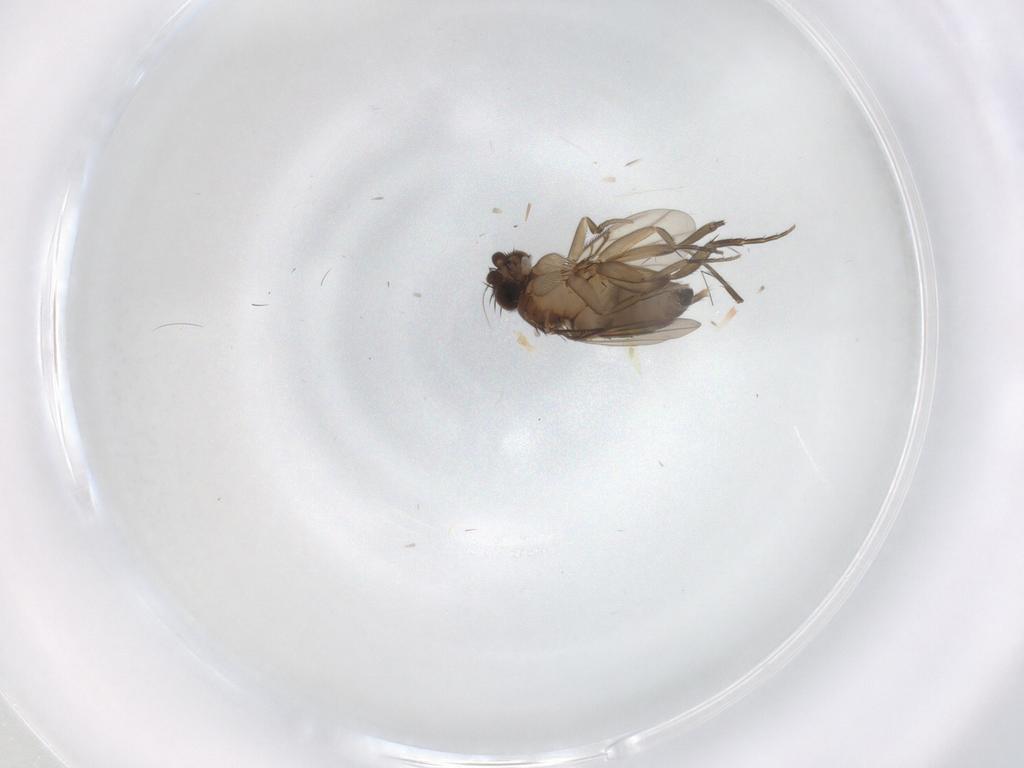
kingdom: Animalia
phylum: Arthropoda
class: Insecta
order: Diptera
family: Phoridae
